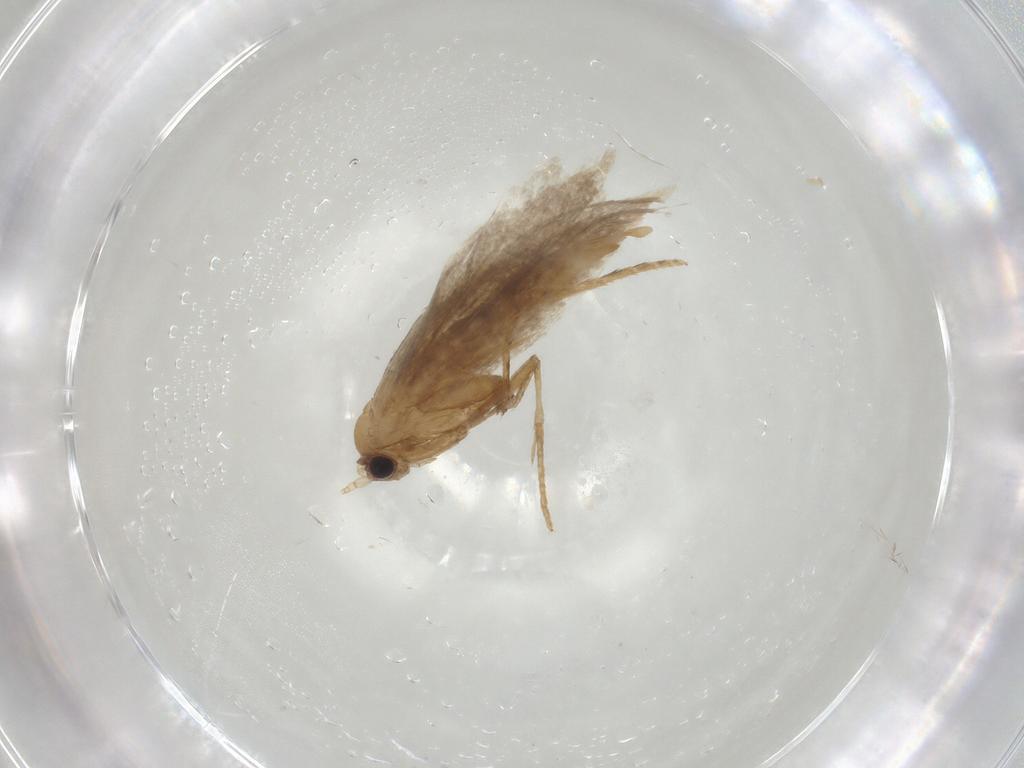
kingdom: Animalia
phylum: Arthropoda
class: Insecta
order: Lepidoptera
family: Nepticulidae
